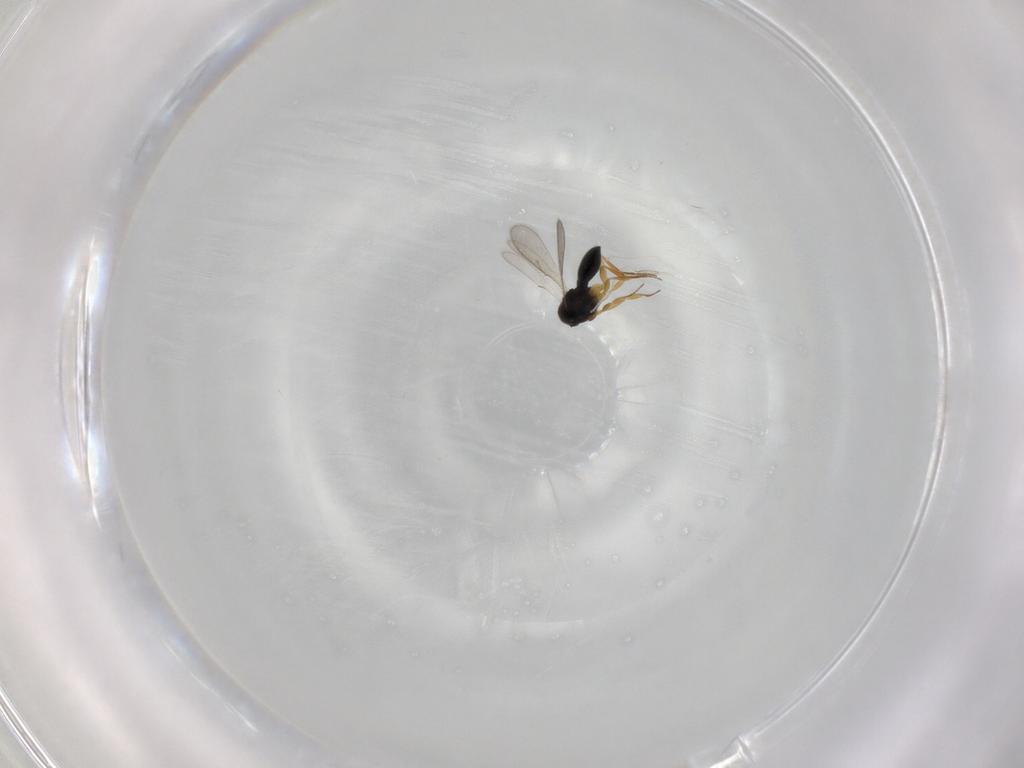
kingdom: Animalia
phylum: Arthropoda
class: Insecta
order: Hymenoptera
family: Scelionidae
